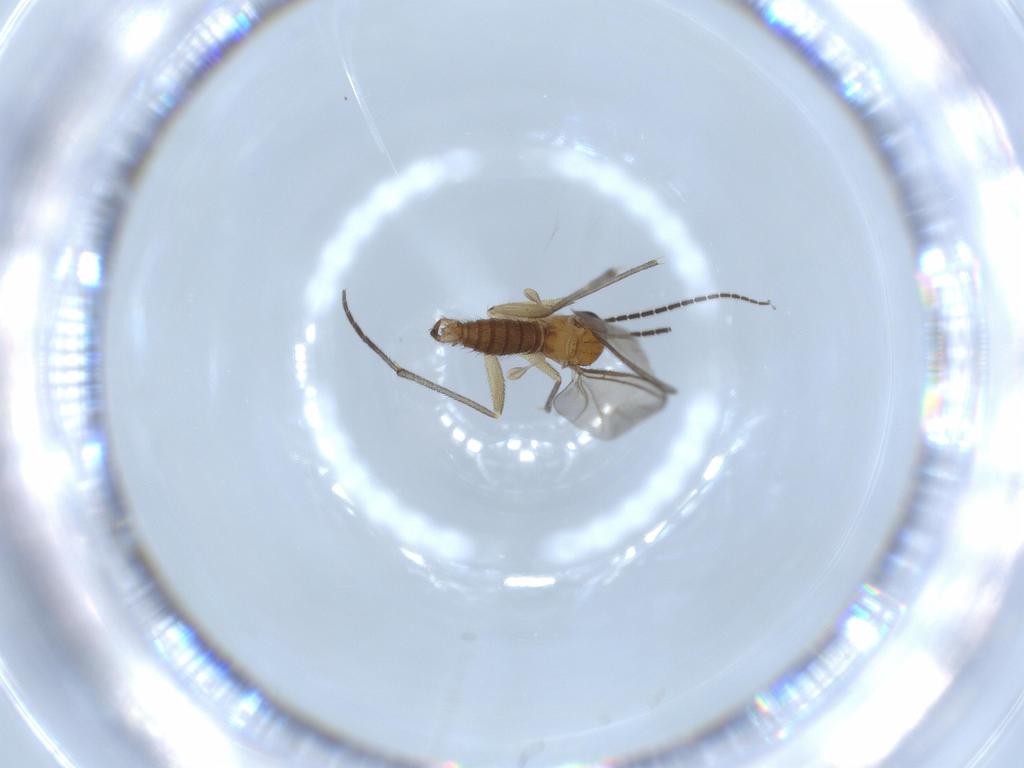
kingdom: Animalia
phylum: Arthropoda
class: Insecta
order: Diptera
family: Sciaridae
